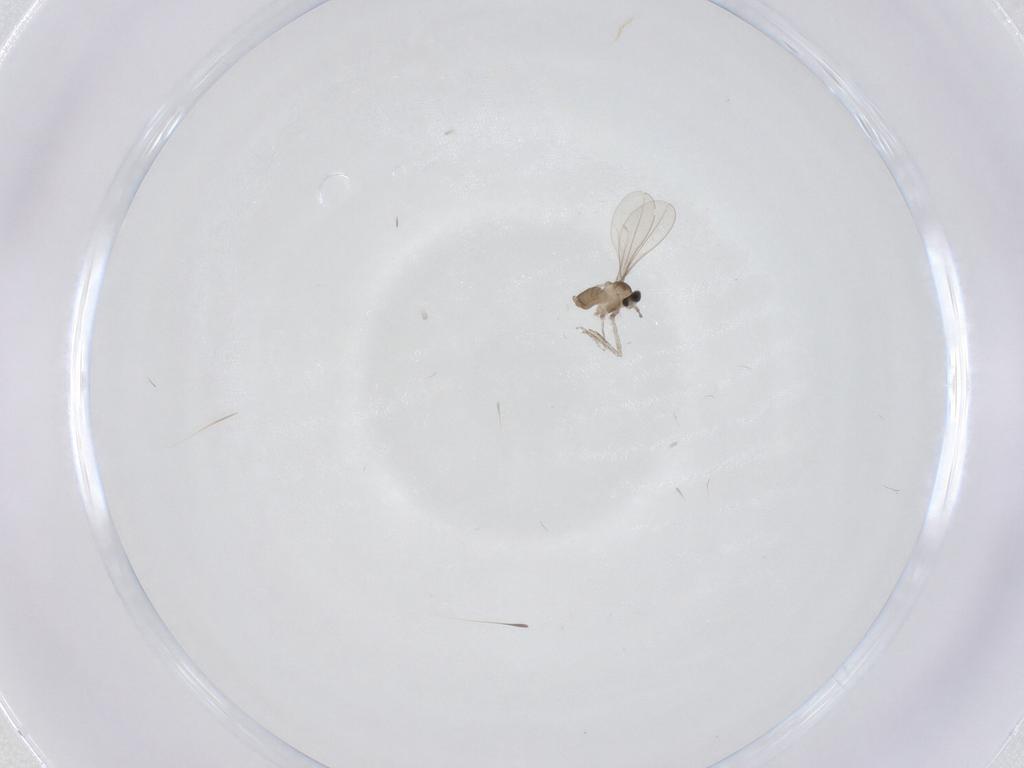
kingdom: Animalia
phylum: Arthropoda
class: Insecta
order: Diptera
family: Cecidomyiidae
